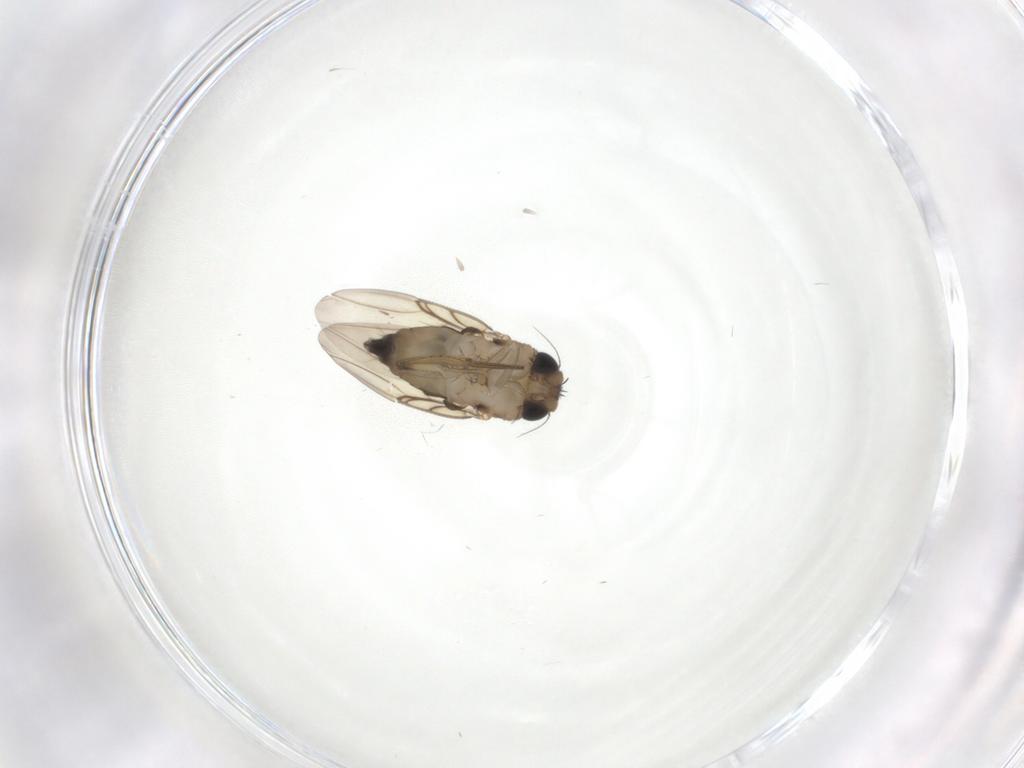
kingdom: Animalia
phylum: Arthropoda
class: Insecta
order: Diptera
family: Phoridae
